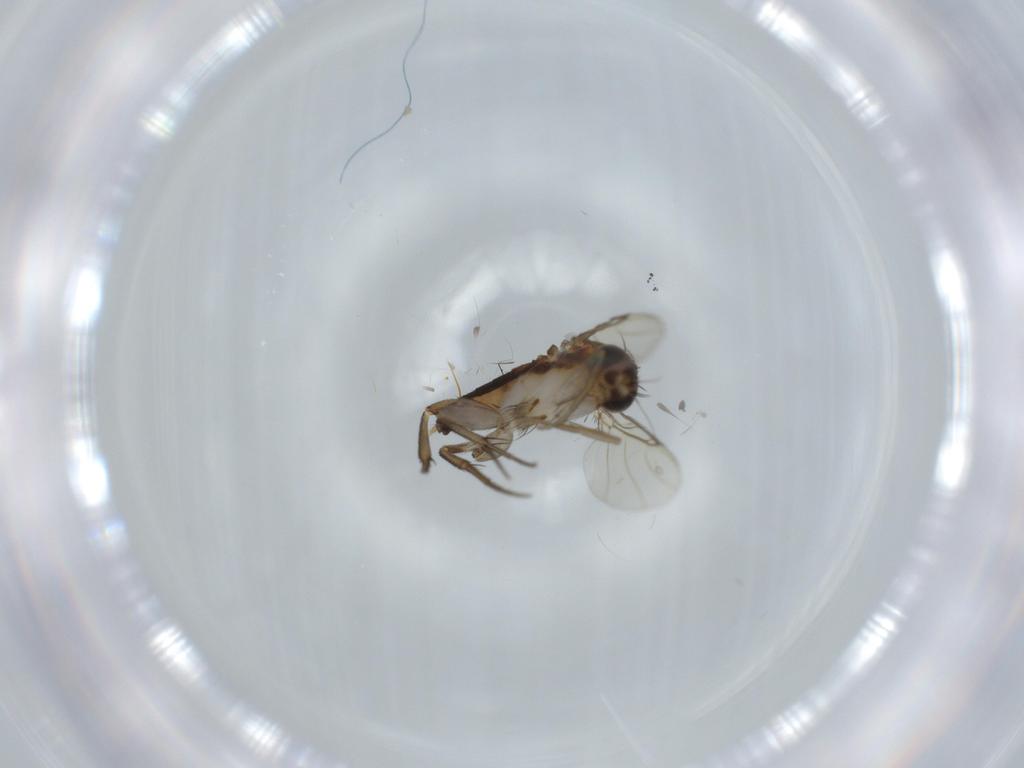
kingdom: Animalia
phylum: Arthropoda
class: Insecta
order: Diptera
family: Phoridae
